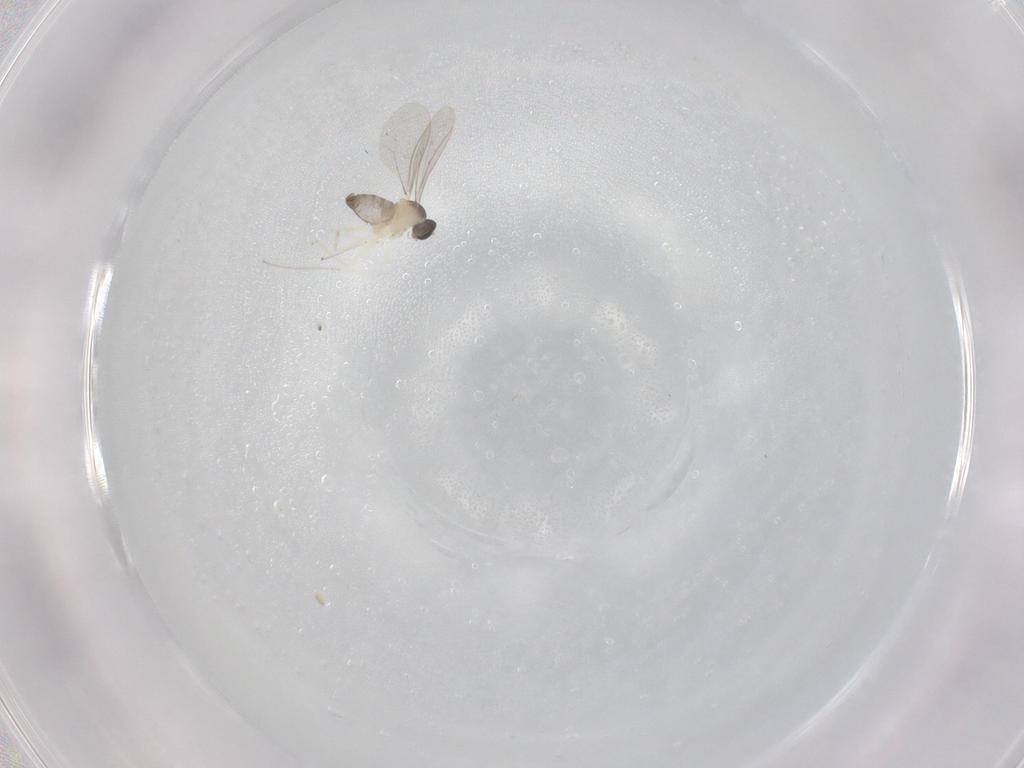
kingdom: Animalia
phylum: Arthropoda
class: Insecta
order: Diptera
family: Cecidomyiidae
